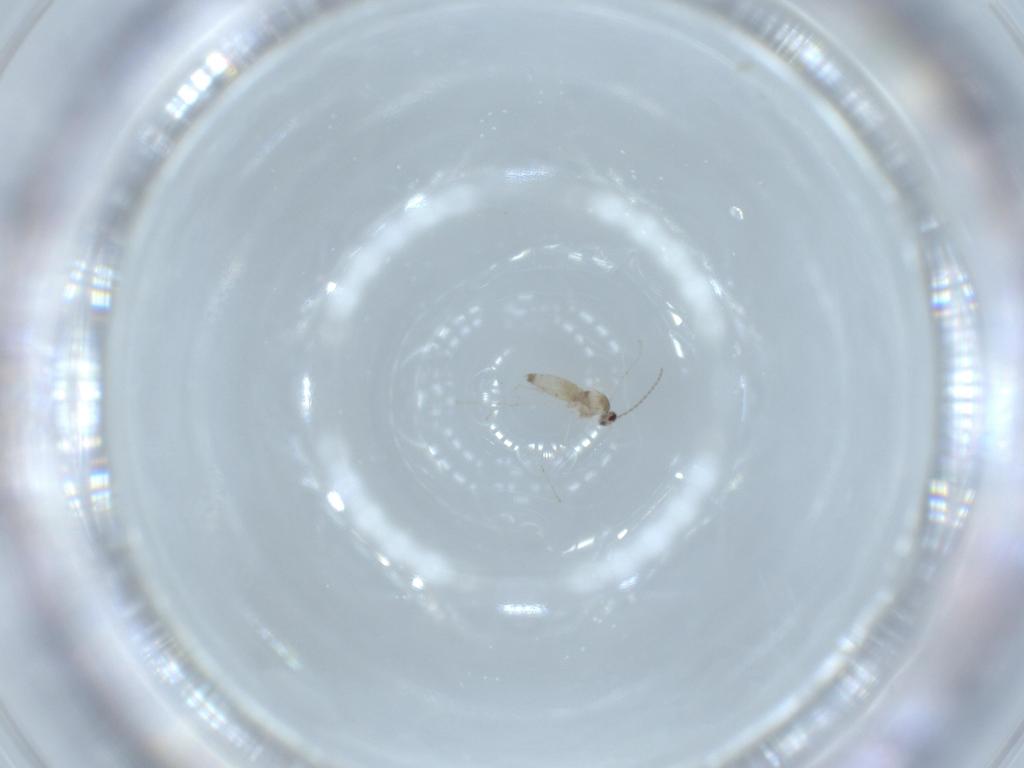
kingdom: Animalia
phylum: Arthropoda
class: Insecta
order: Diptera
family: Cecidomyiidae
